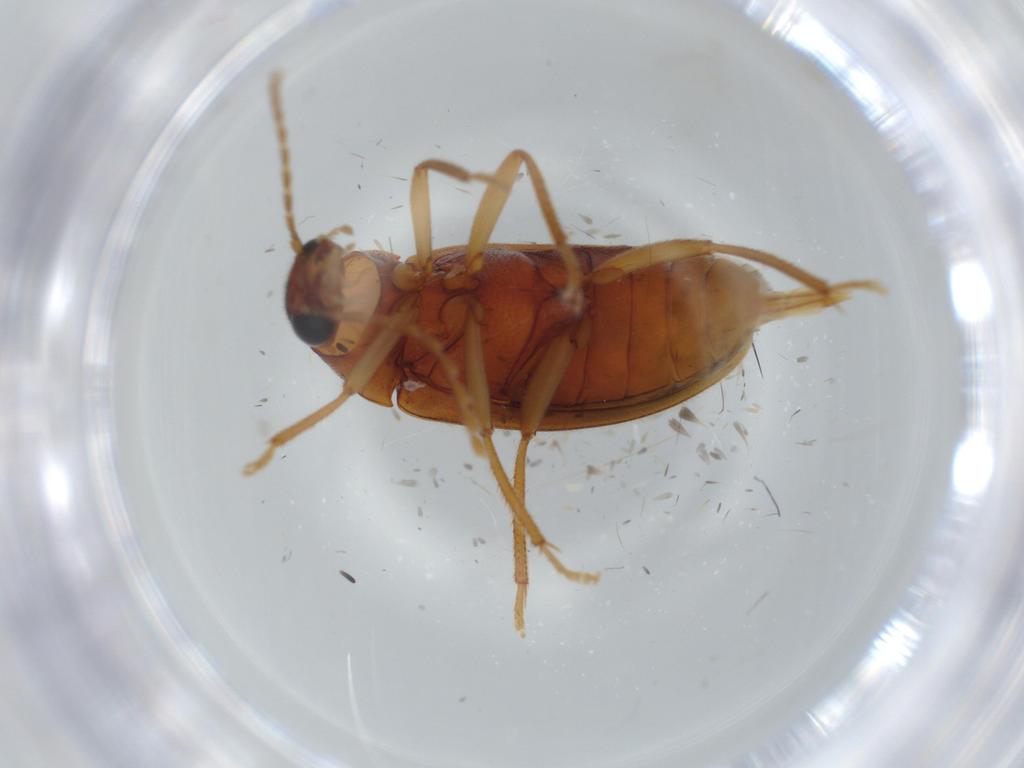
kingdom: Animalia
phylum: Arthropoda
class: Insecta
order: Coleoptera
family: Ptilodactylidae
